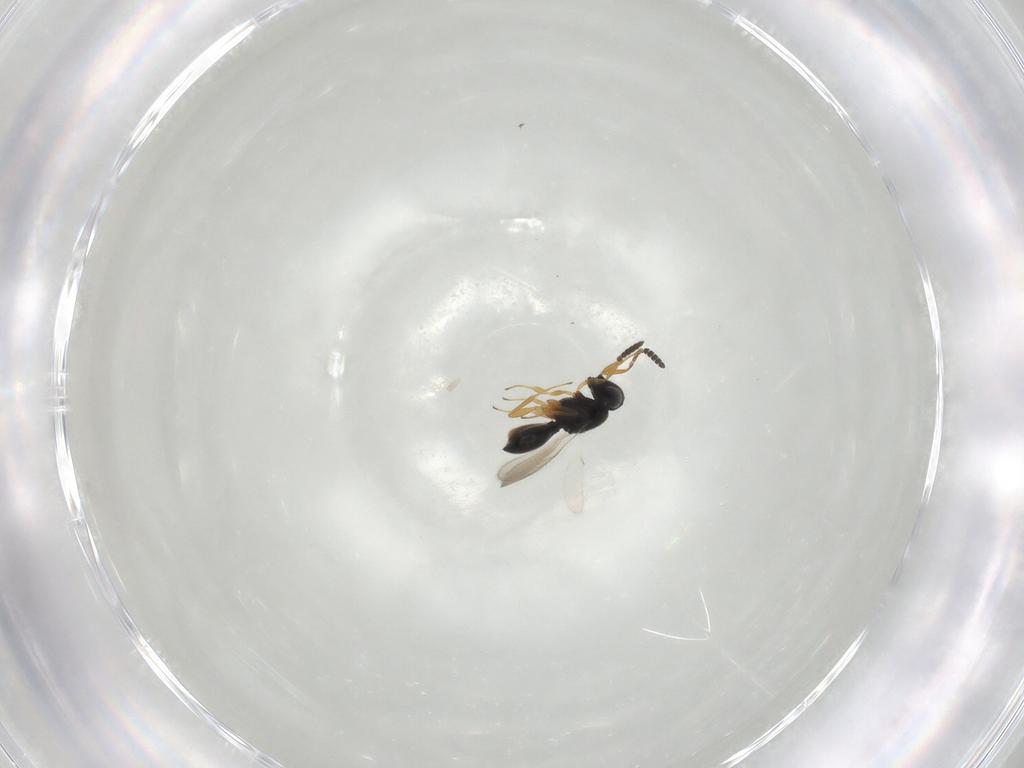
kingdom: Animalia
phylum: Arthropoda
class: Insecta
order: Hymenoptera
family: Scelionidae
